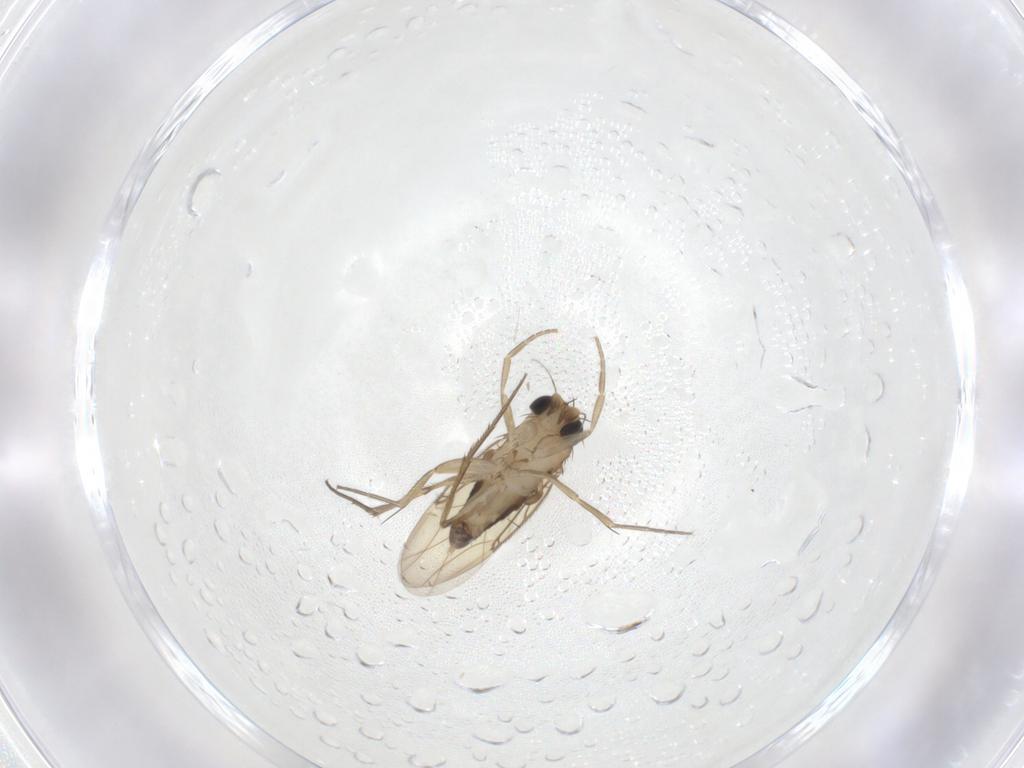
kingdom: Animalia
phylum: Arthropoda
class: Insecta
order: Diptera
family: Phoridae
